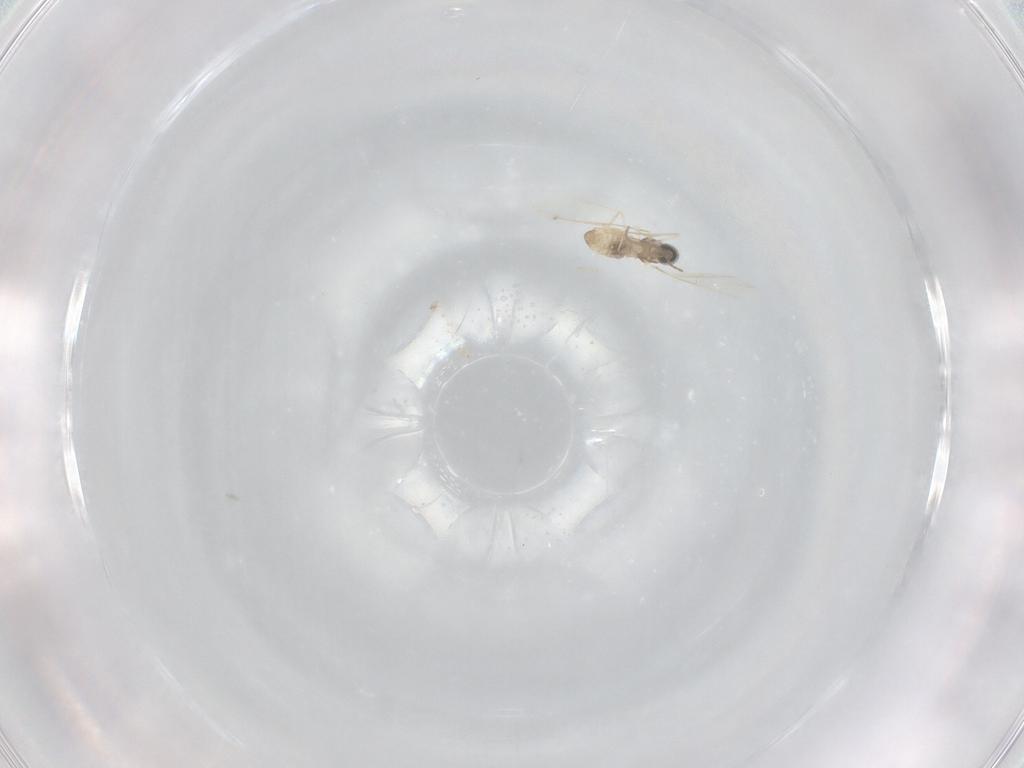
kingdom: Animalia
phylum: Arthropoda
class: Insecta
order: Diptera
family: Cecidomyiidae
